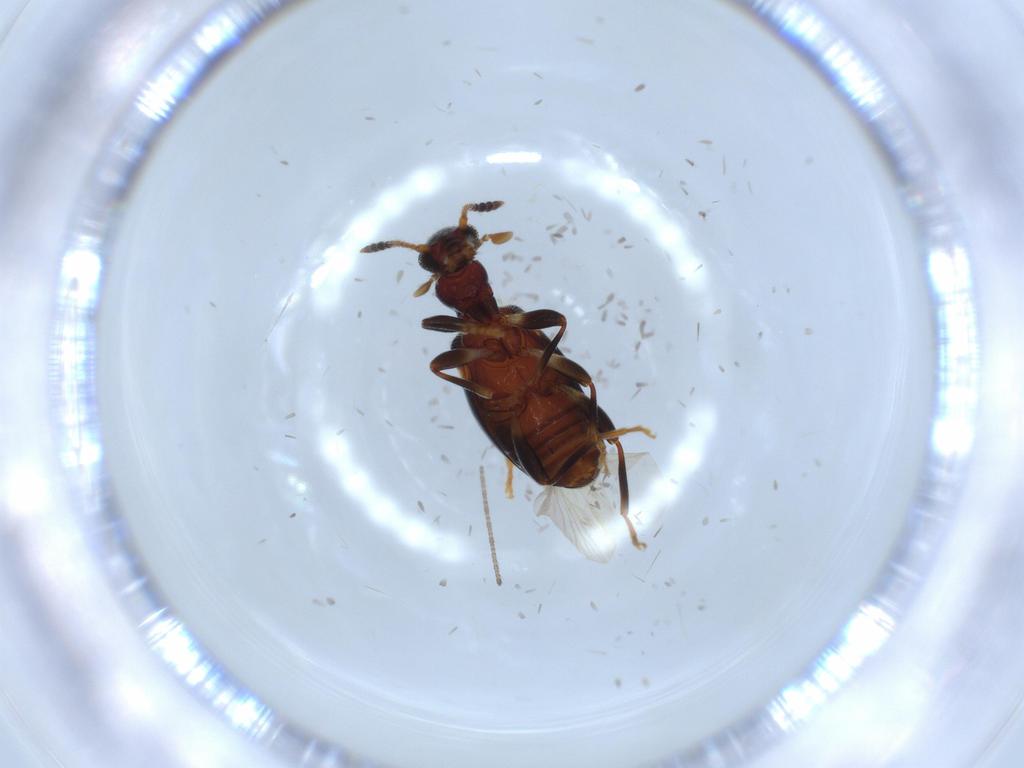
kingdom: Animalia
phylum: Arthropoda
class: Insecta
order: Coleoptera
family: Anthicidae
